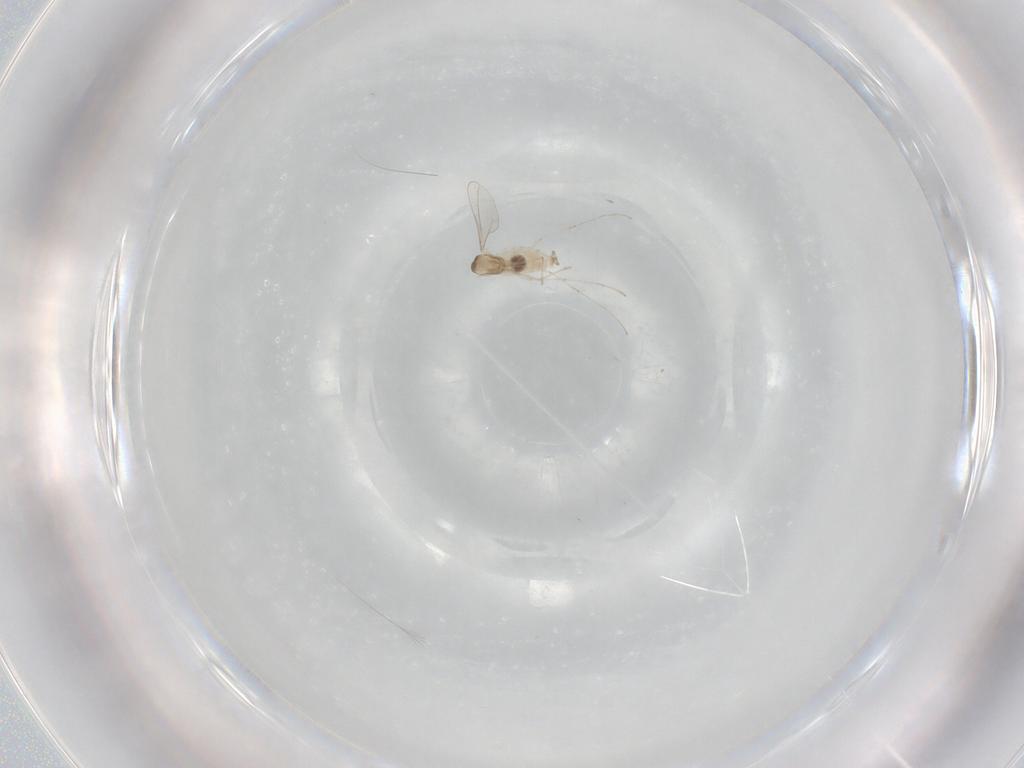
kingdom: Animalia
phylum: Arthropoda
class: Insecta
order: Diptera
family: Cecidomyiidae
